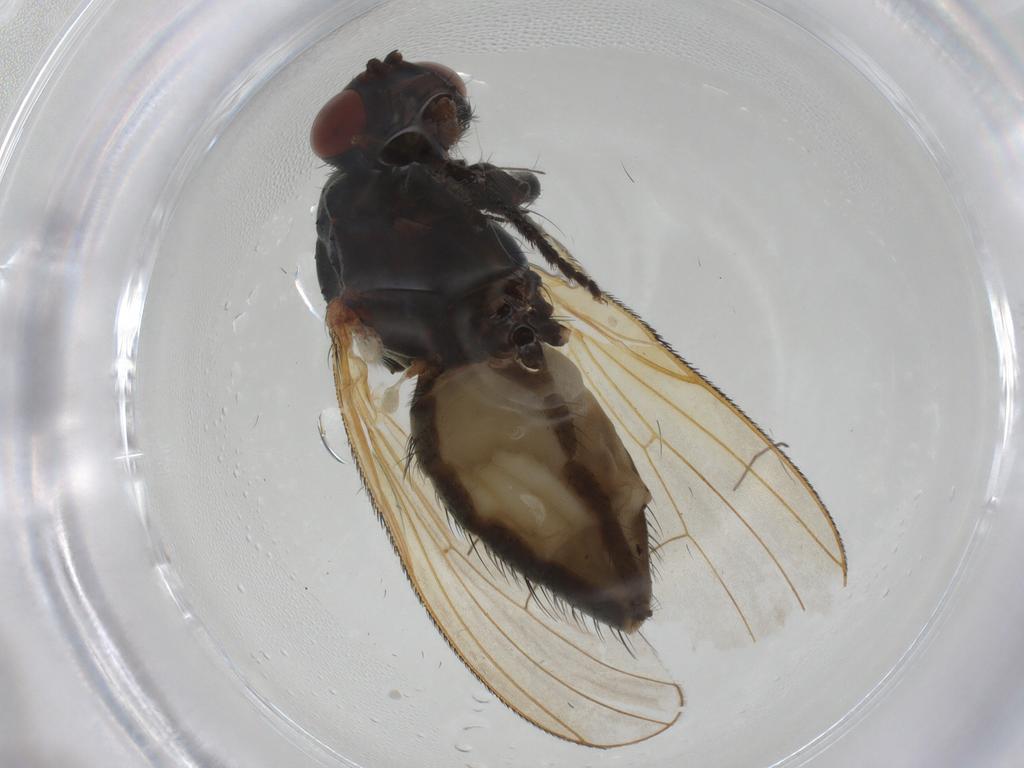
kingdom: Animalia
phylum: Arthropoda
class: Insecta
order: Diptera
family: Anthomyiidae
